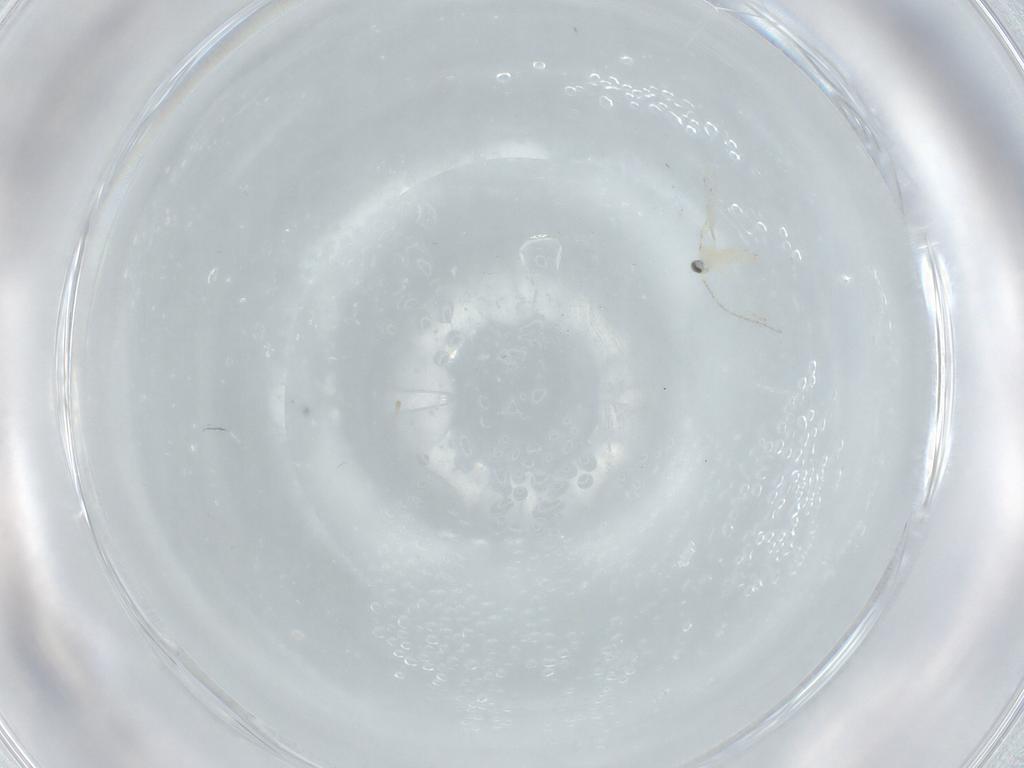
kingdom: Animalia
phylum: Arthropoda
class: Insecta
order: Diptera
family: Cecidomyiidae
